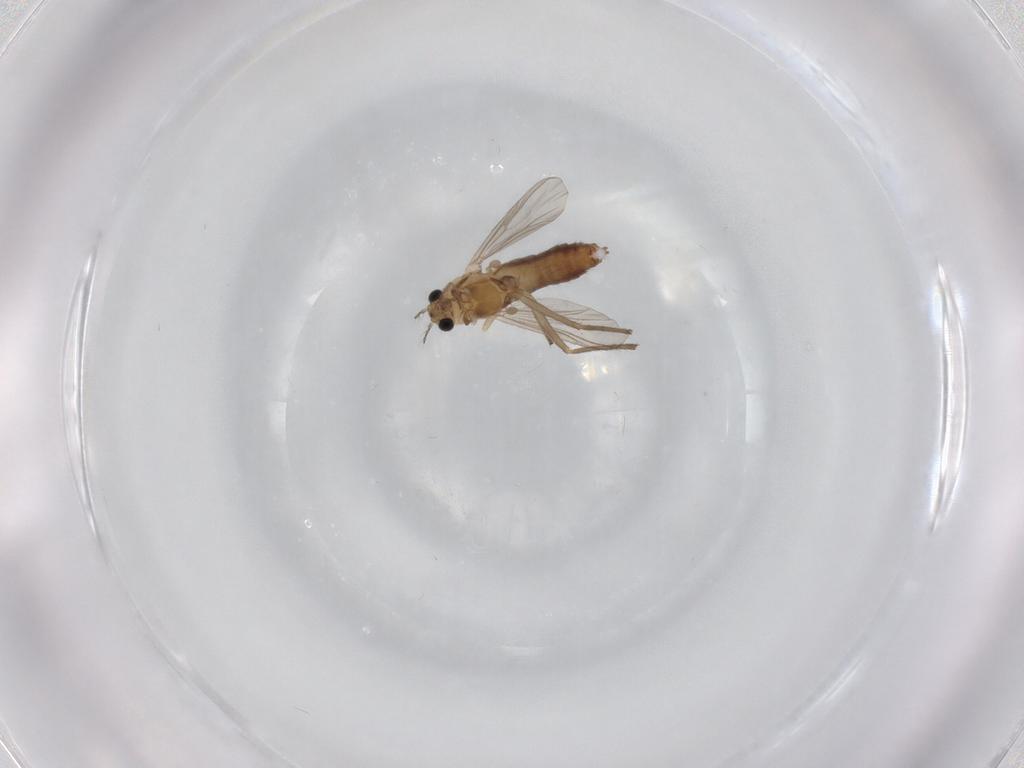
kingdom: Animalia
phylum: Arthropoda
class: Insecta
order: Diptera
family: Chironomidae
